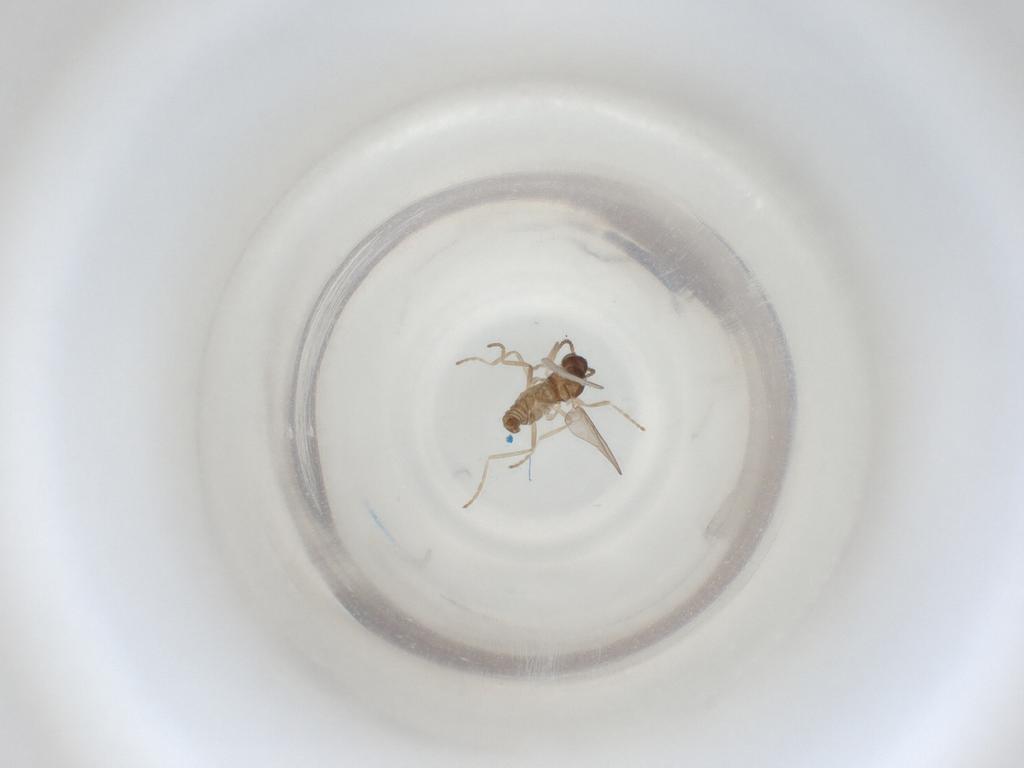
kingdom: Animalia
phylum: Arthropoda
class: Insecta
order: Diptera
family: Cecidomyiidae
